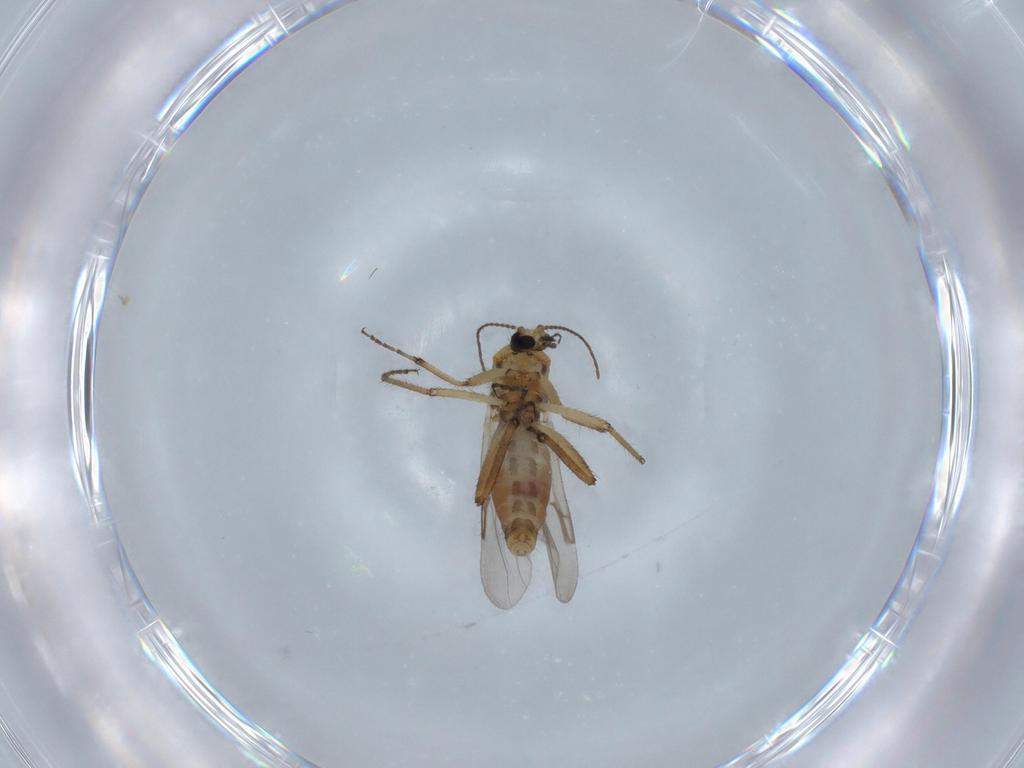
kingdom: Animalia
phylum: Arthropoda
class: Insecta
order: Diptera
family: Ceratopogonidae
